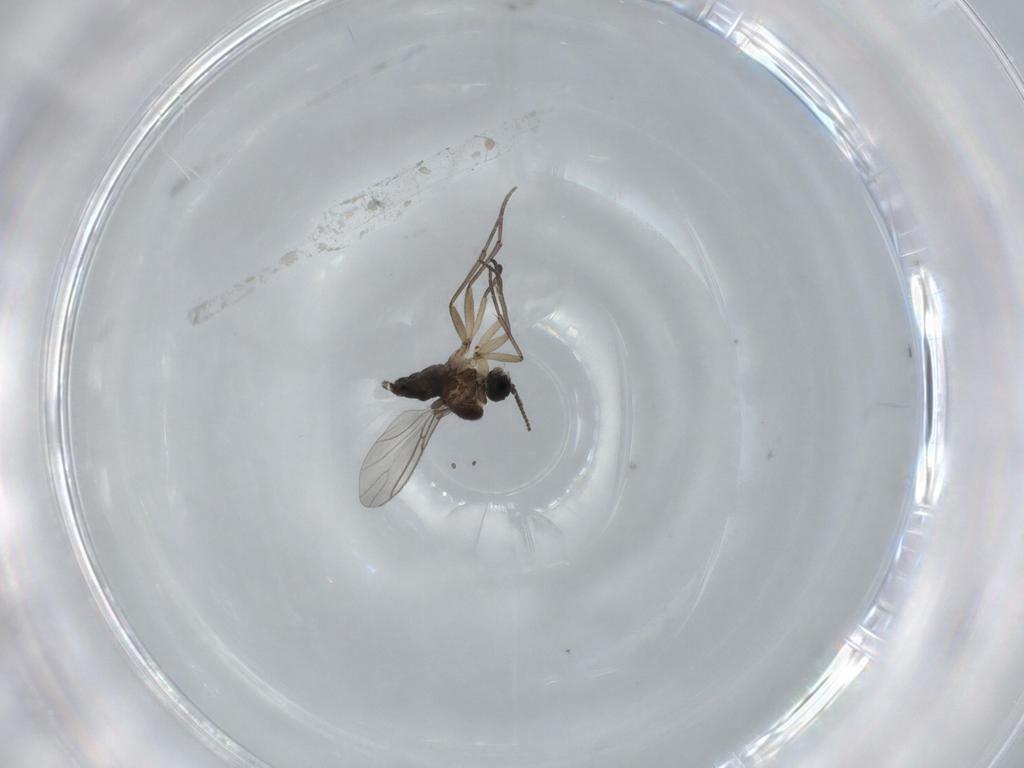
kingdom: Animalia
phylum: Arthropoda
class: Insecta
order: Diptera
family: Sciaridae
